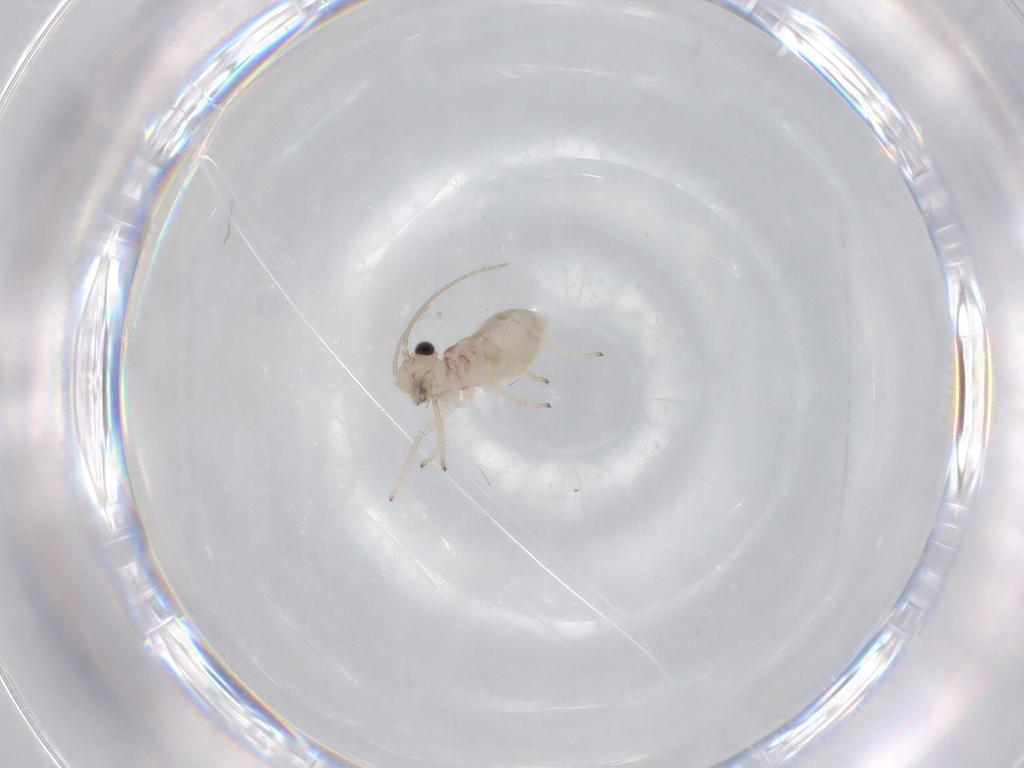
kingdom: Animalia
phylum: Arthropoda
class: Insecta
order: Psocodea
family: Caeciliusidae
